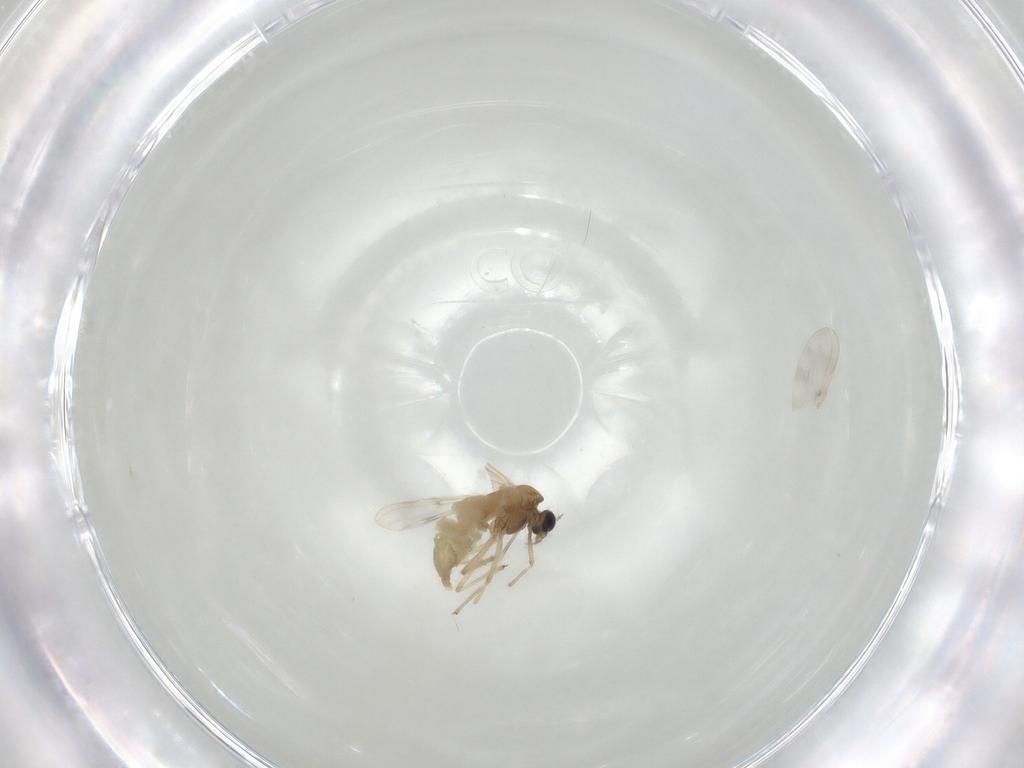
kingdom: Animalia
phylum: Arthropoda
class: Insecta
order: Diptera
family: Chironomidae
